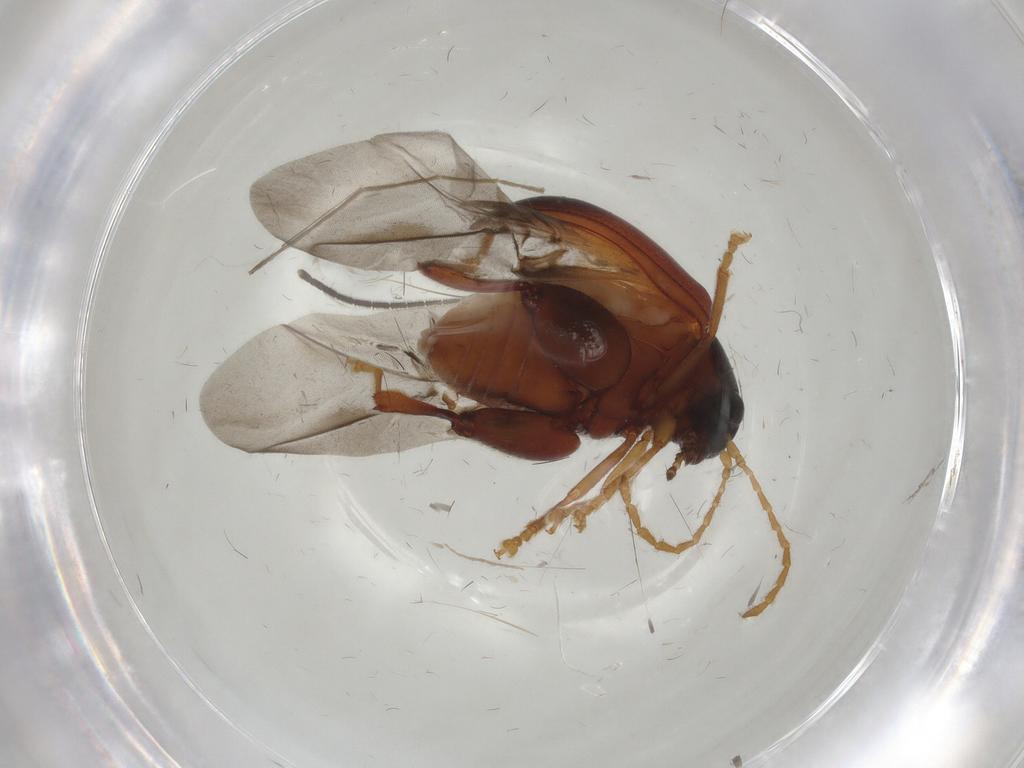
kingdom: Animalia
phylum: Arthropoda
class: Insecta
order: Coleoptera
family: Chrysomelidae
